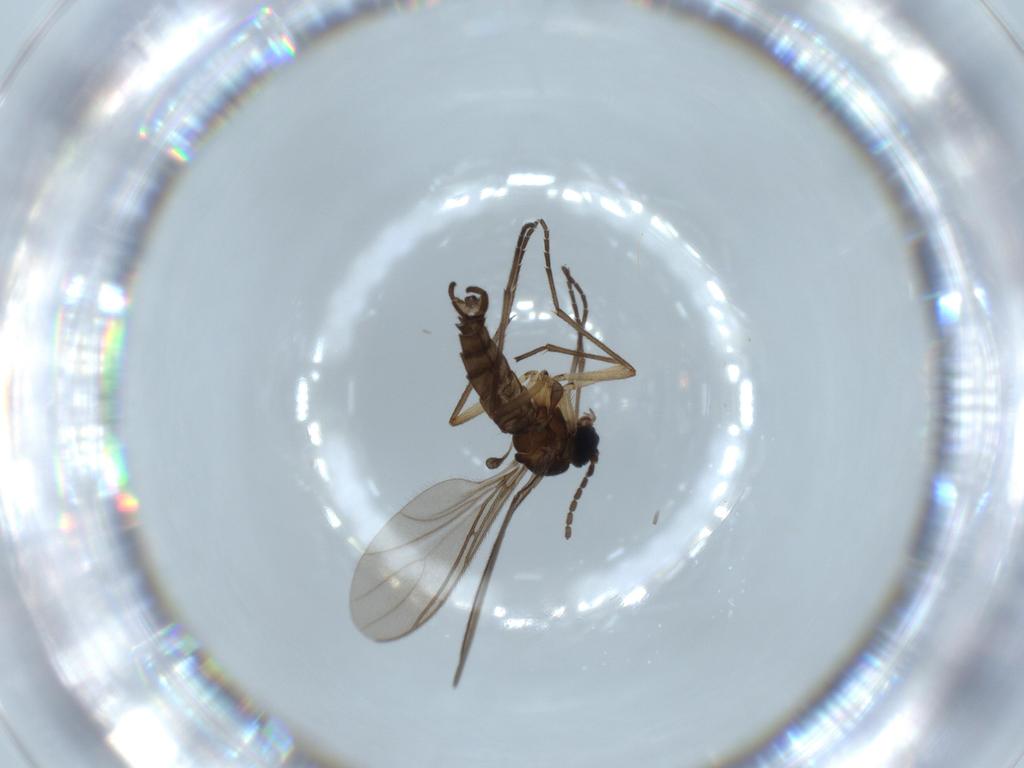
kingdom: Animalia
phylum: Arthropoda
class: Insecta
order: Diptera
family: Sciaridae
